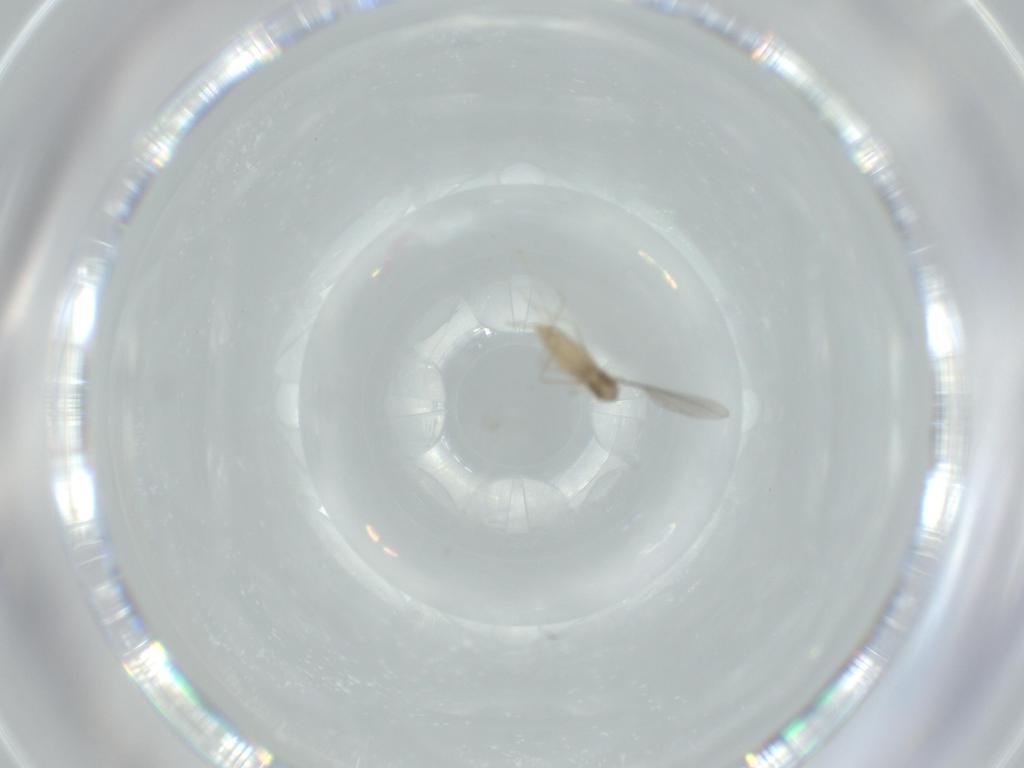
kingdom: Animalia
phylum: Arthropoda
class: Insecta
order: Diptera
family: Cecidomyiidae
